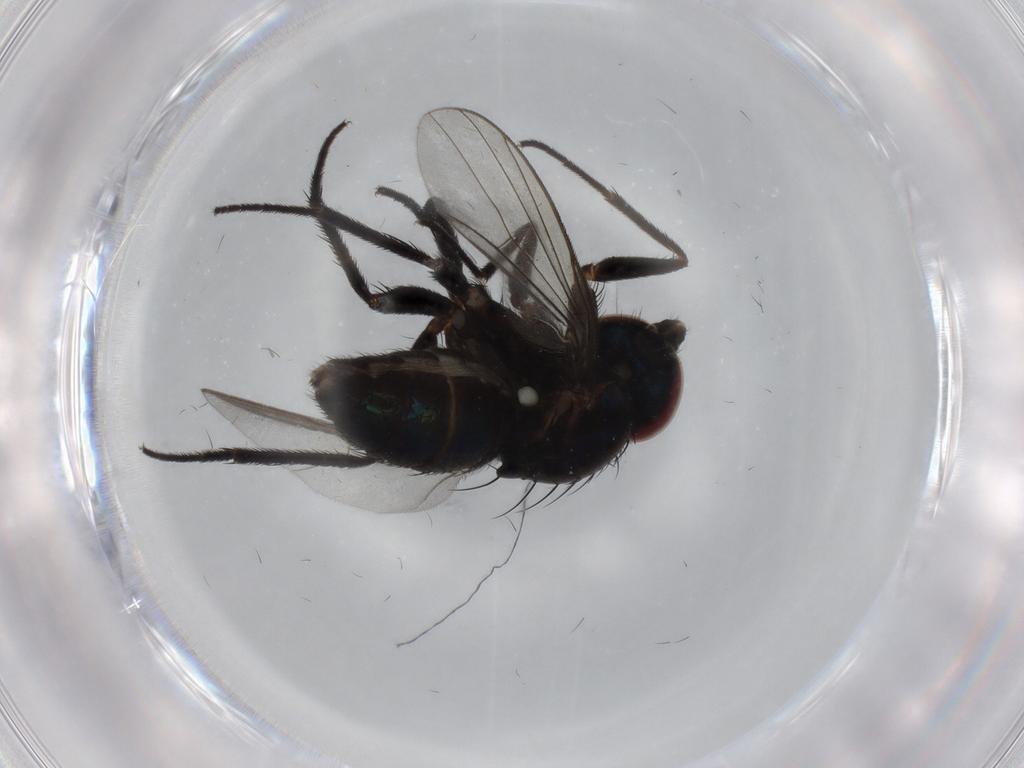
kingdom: Animalia
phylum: Arthropoda
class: Insecta
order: Diptera
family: Dolichopodidae
